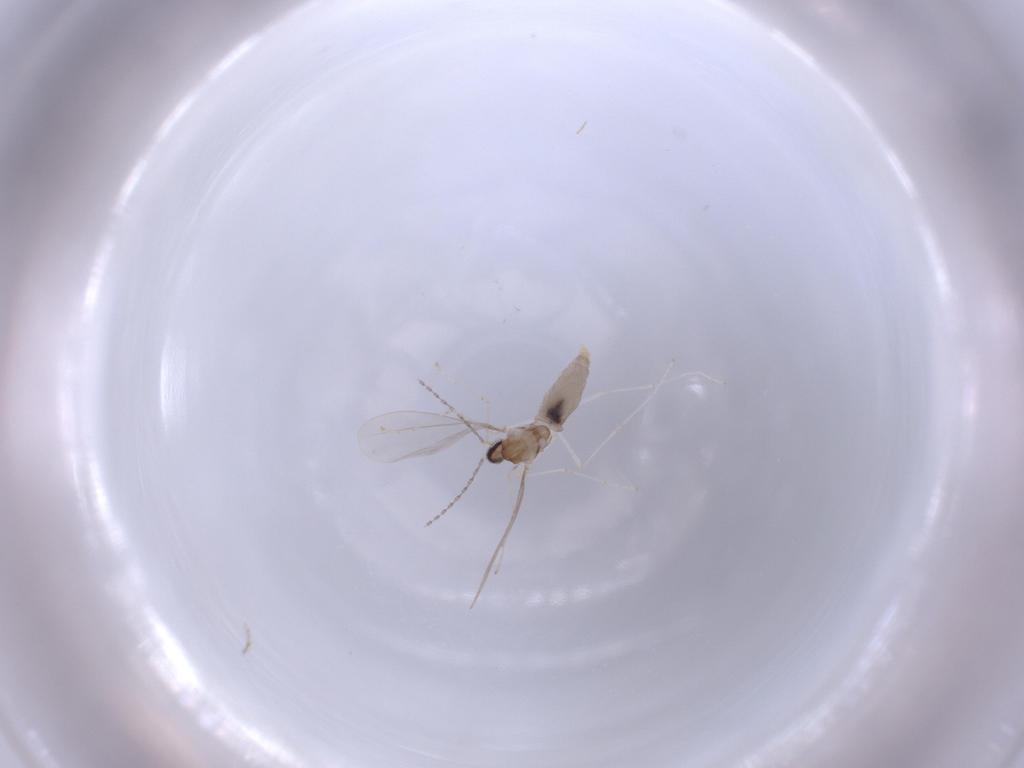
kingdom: Animalia
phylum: Arthropoda
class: Insecta
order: Diptera
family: Cecidomyiidae
